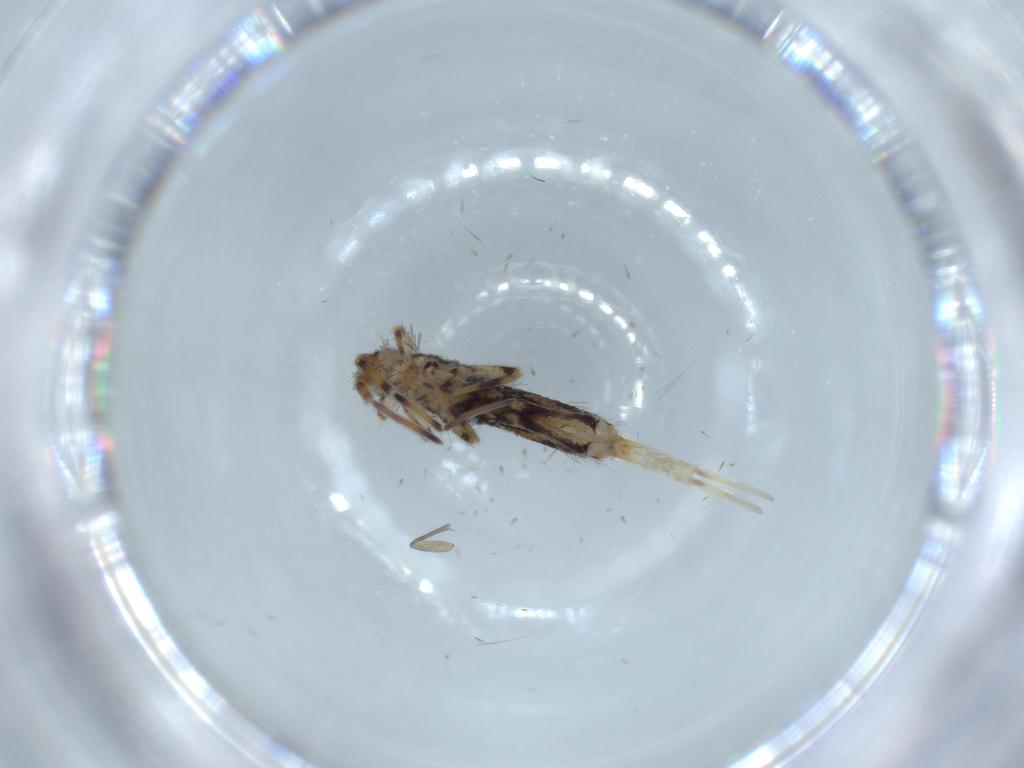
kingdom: Animalia
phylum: Arthropoda
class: Collembola
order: Entomobryomorpha
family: Entomobryidae
